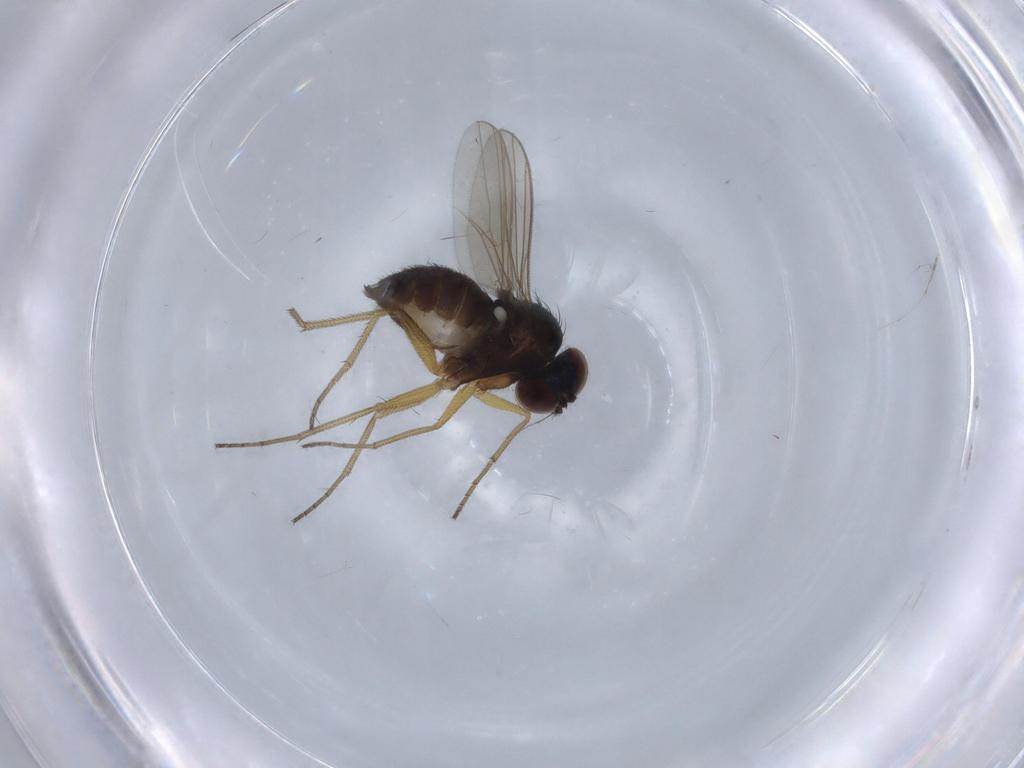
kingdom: Animalia
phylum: Arthropoda
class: Insecta
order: Diptera
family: Dolichopodidae
